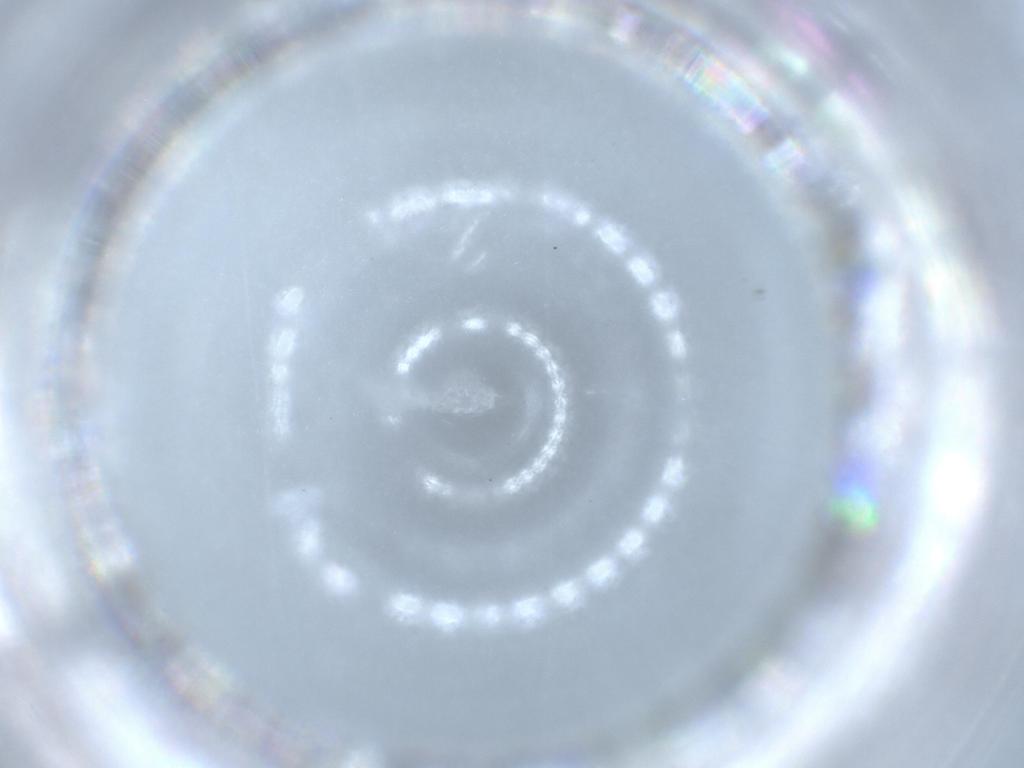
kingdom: Animalia
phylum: Arthropoda
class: Insecta
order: Diptera
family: Chironomidae
